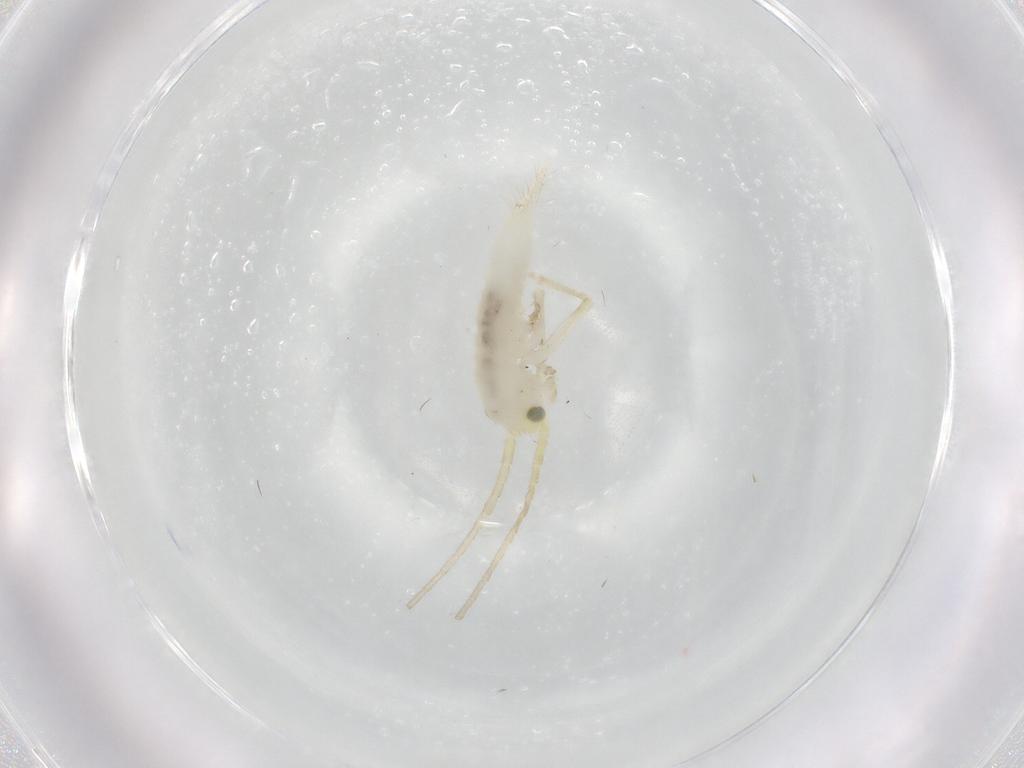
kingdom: Animalia
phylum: Arthropoda
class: Insecta
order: Orthoptera
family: Trigonidiidae
